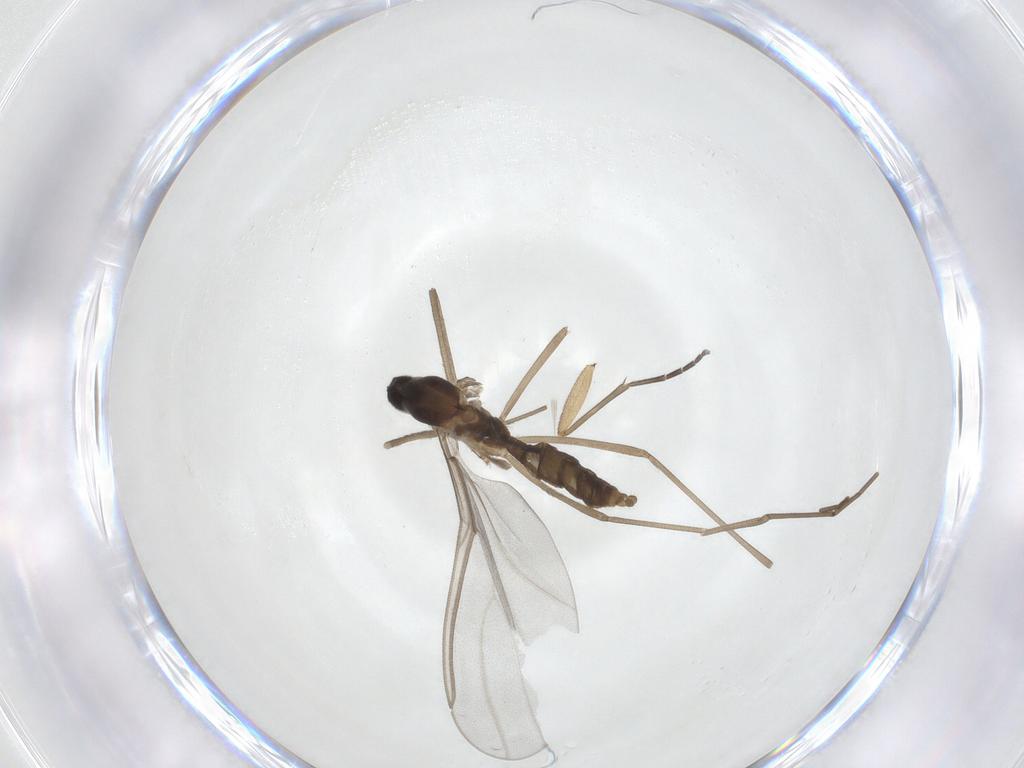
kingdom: Animalia
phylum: Arthropoda
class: Insecta
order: Diptera
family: Cecidomyiidae
